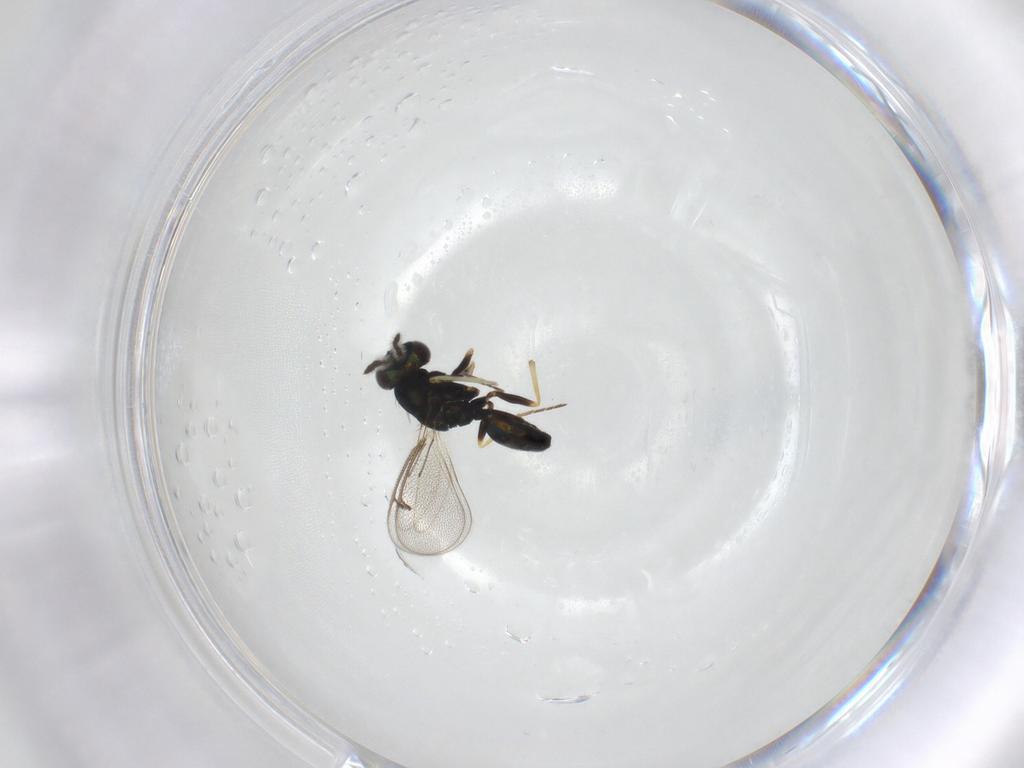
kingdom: Animalia
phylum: Arthropoda
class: Insecta
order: Hymenoptera
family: Eulophidae
